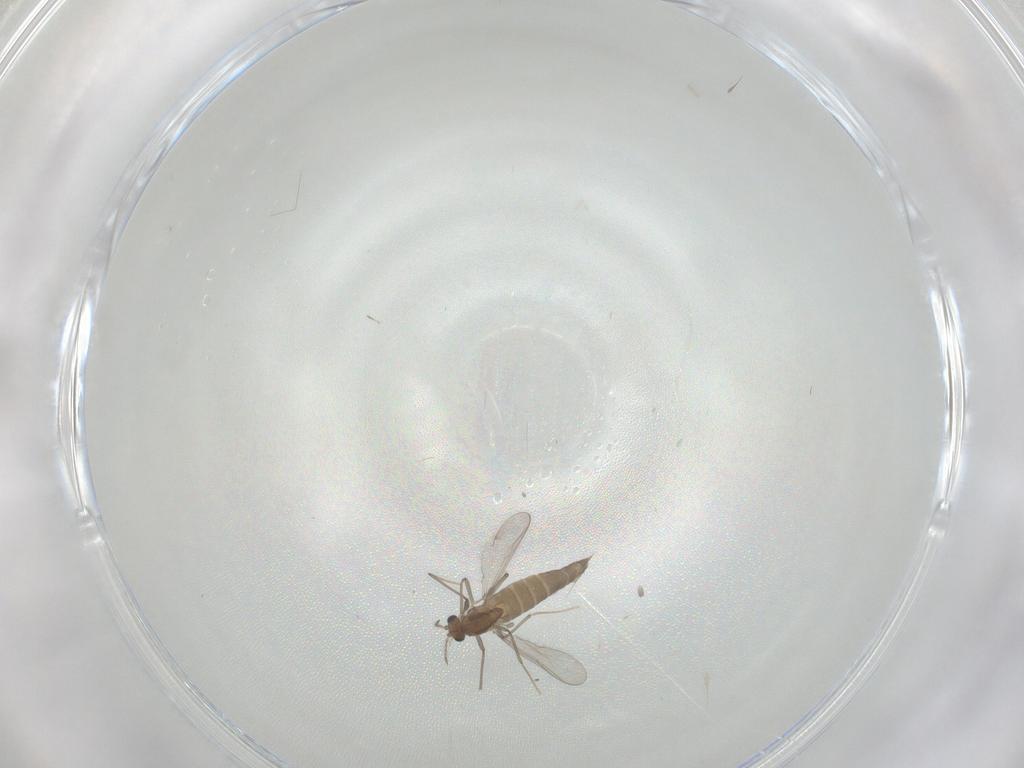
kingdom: Animalia
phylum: Arthropoda
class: Insecta
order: Diptera
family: Chironomidae
